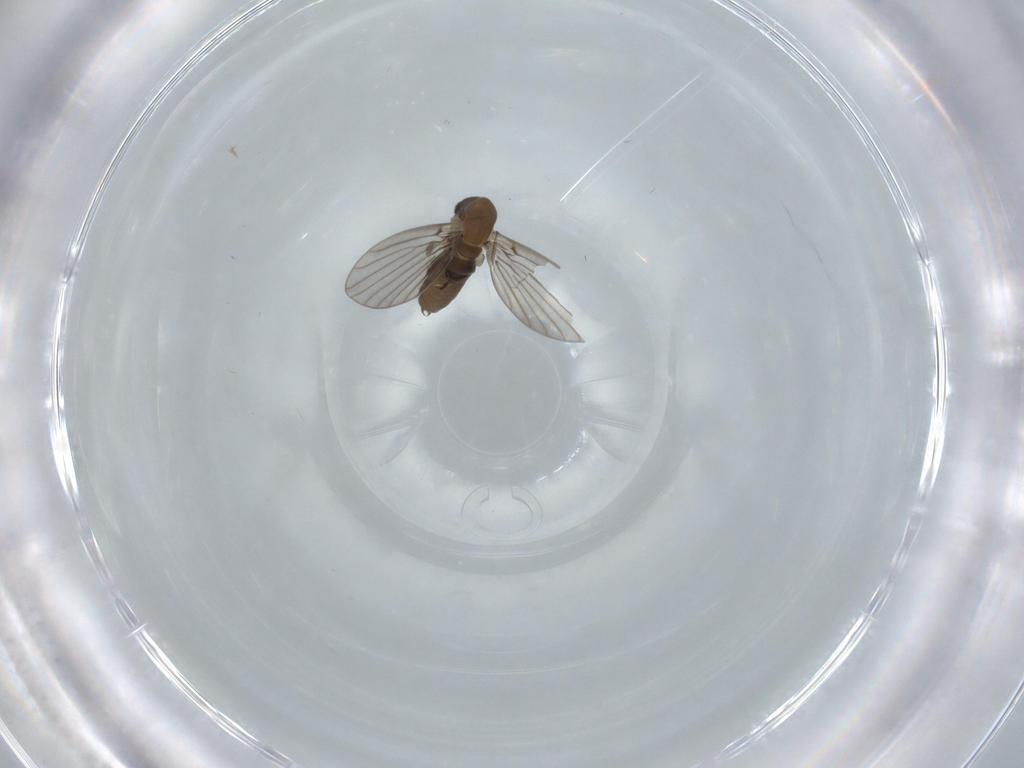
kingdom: Animalia
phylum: Arthropoda
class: Insecta
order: Diptera
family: Psychodidae
